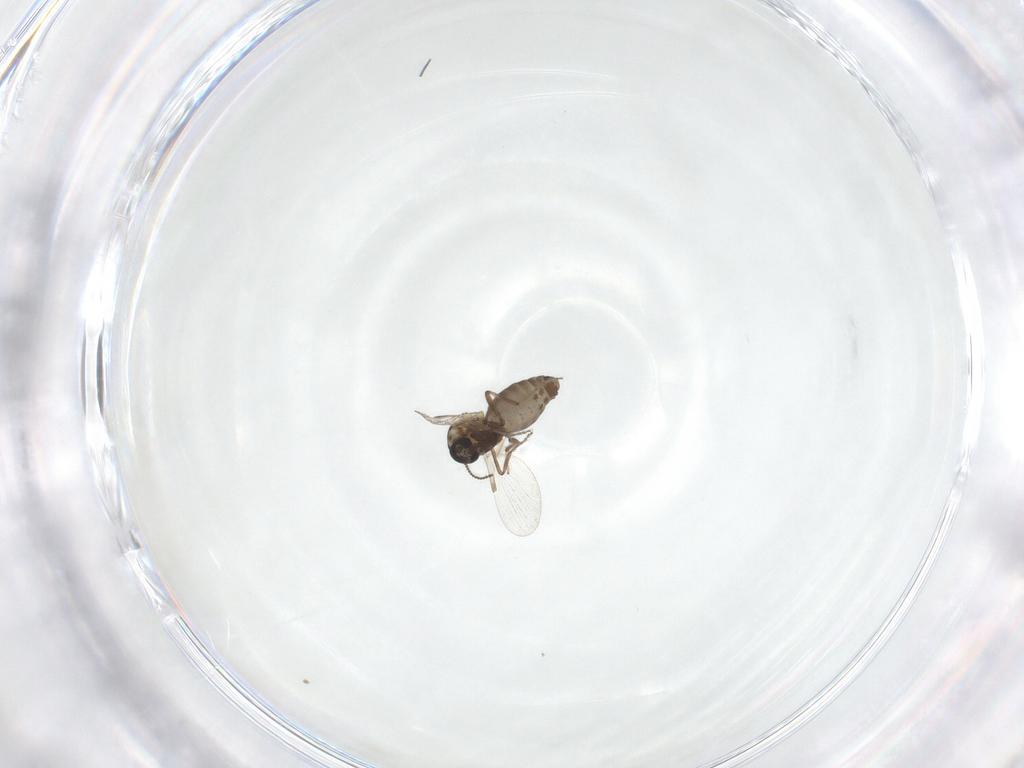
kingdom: Animalia
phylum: Arthropoda
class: Insecta
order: Diptera
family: Ceratopogonidae
